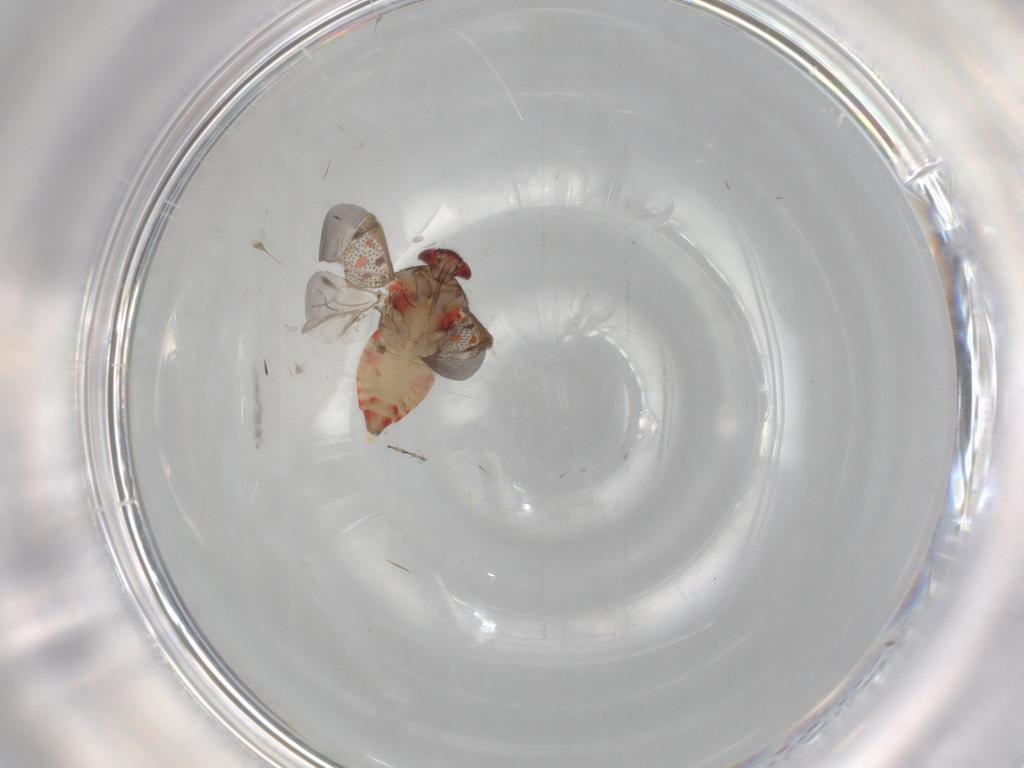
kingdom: Animalia
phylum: Arthropoda
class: Insecta
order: Hemiptera
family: Miridae
